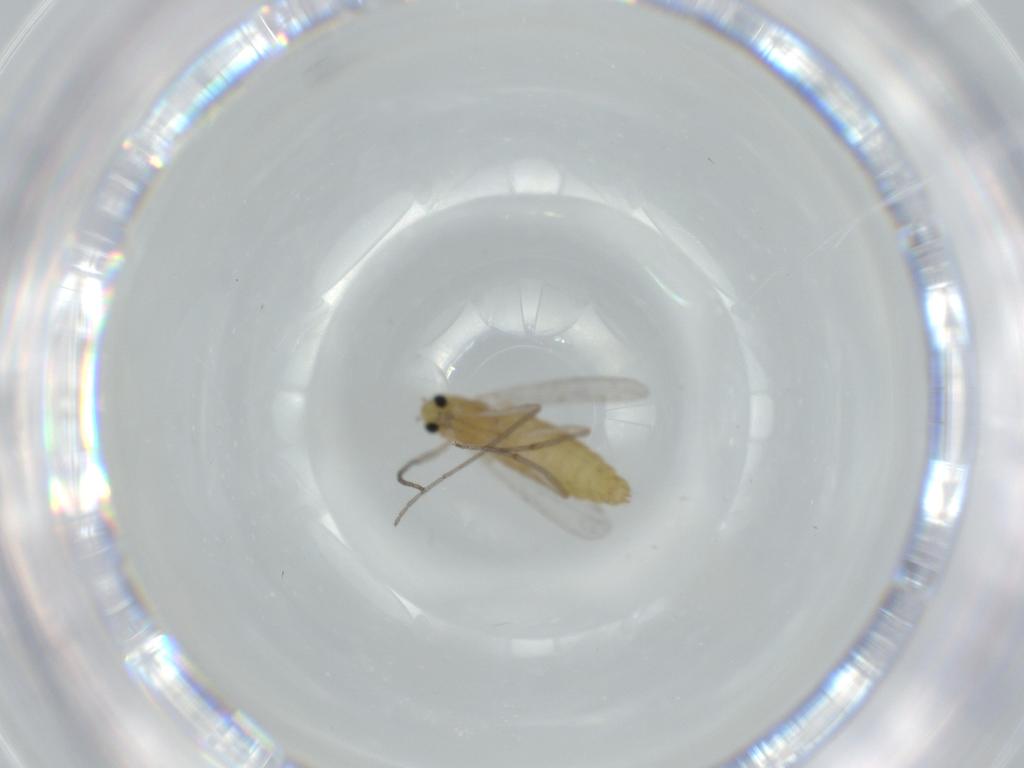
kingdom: Animalia
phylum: Arthropoda
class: Insecta
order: Diptera
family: Chironomidae
